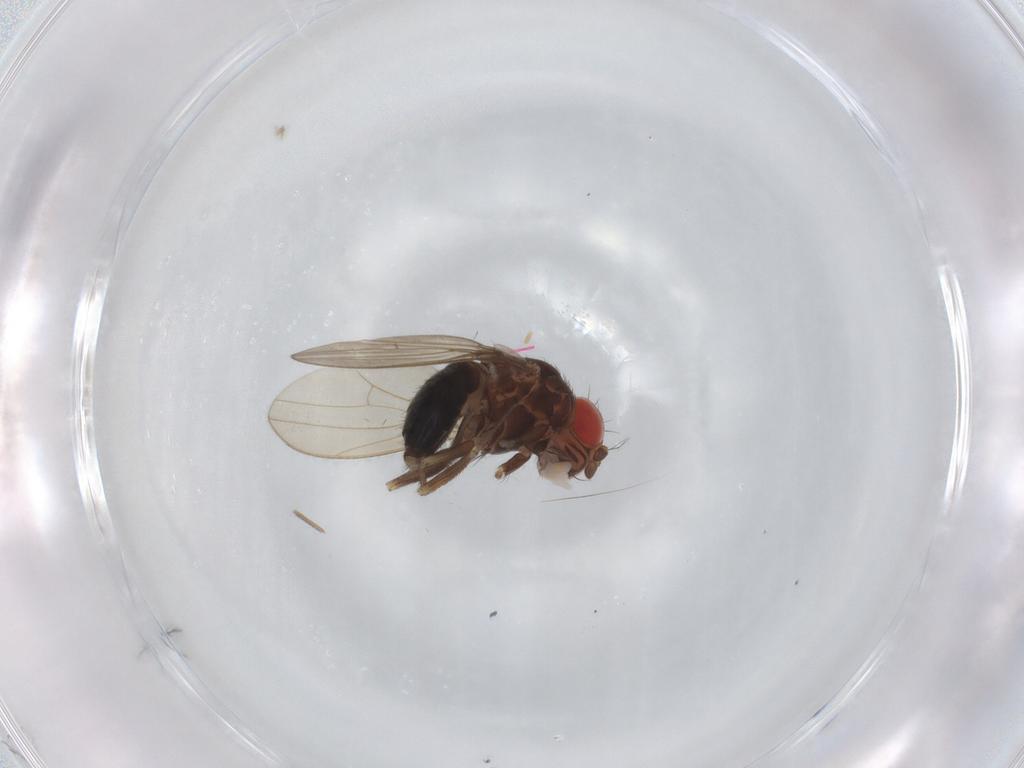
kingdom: Animalia
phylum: Arthropoda
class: Insecta
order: Diptera
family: Drosophilidae
